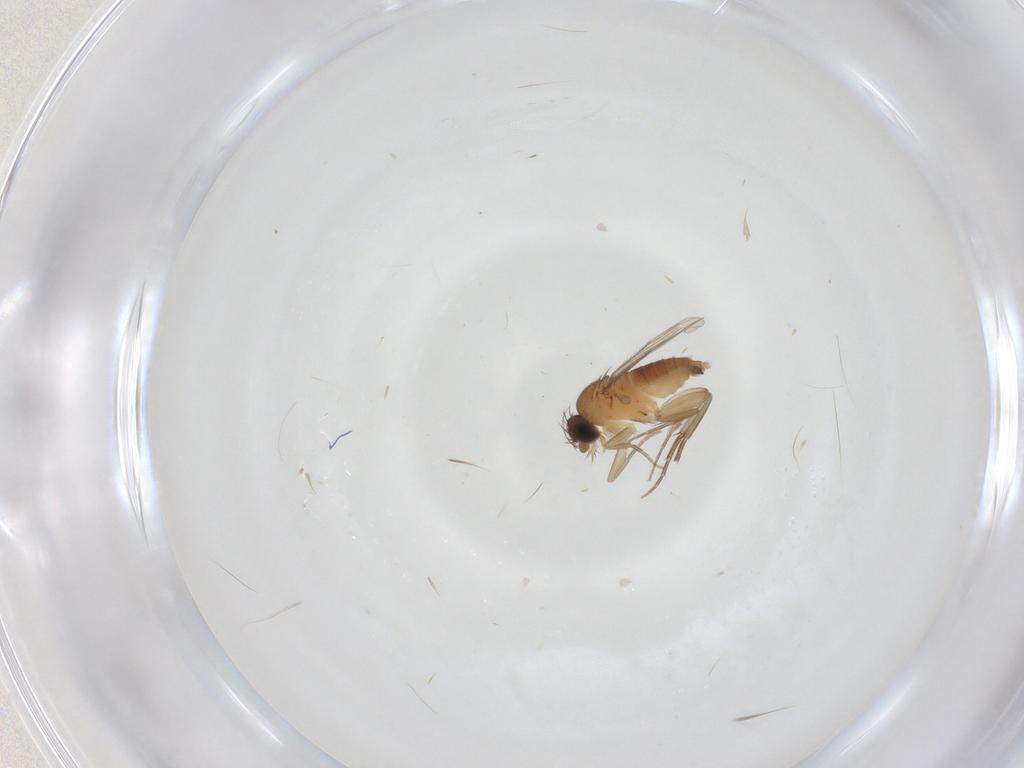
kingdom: Animalia
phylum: Arthropoda
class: Insecta
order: Diptera
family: Phoridae
